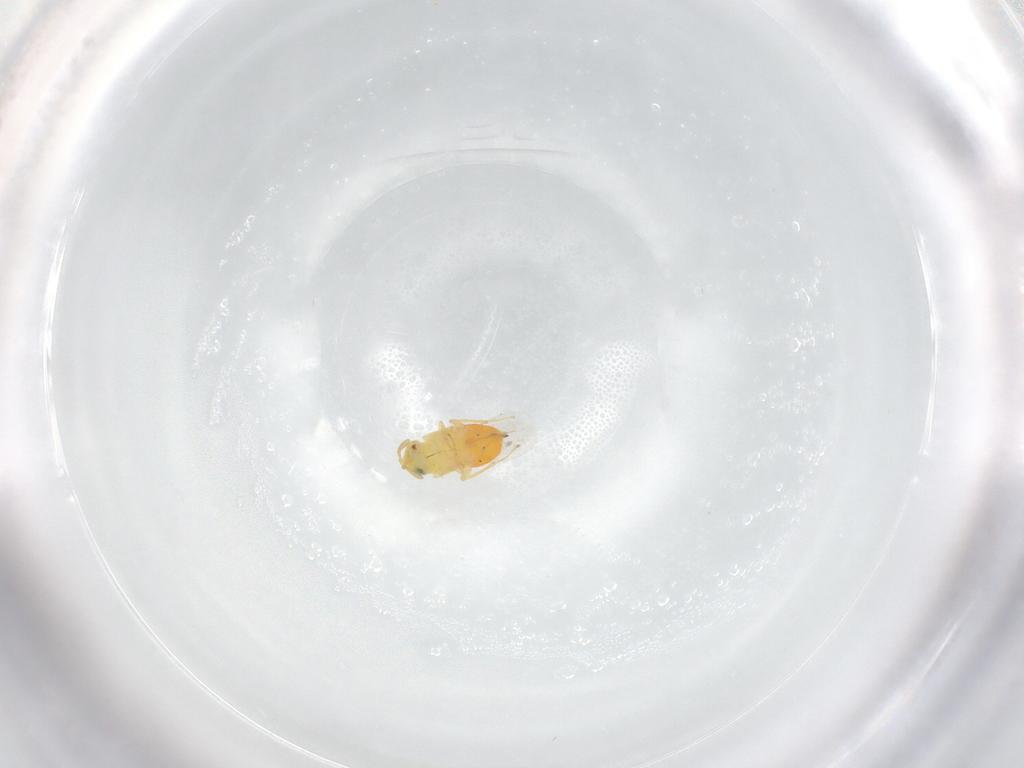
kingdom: Animalia
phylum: Arthropoda
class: Insecta
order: Hymenoptera
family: Encyrtidae
